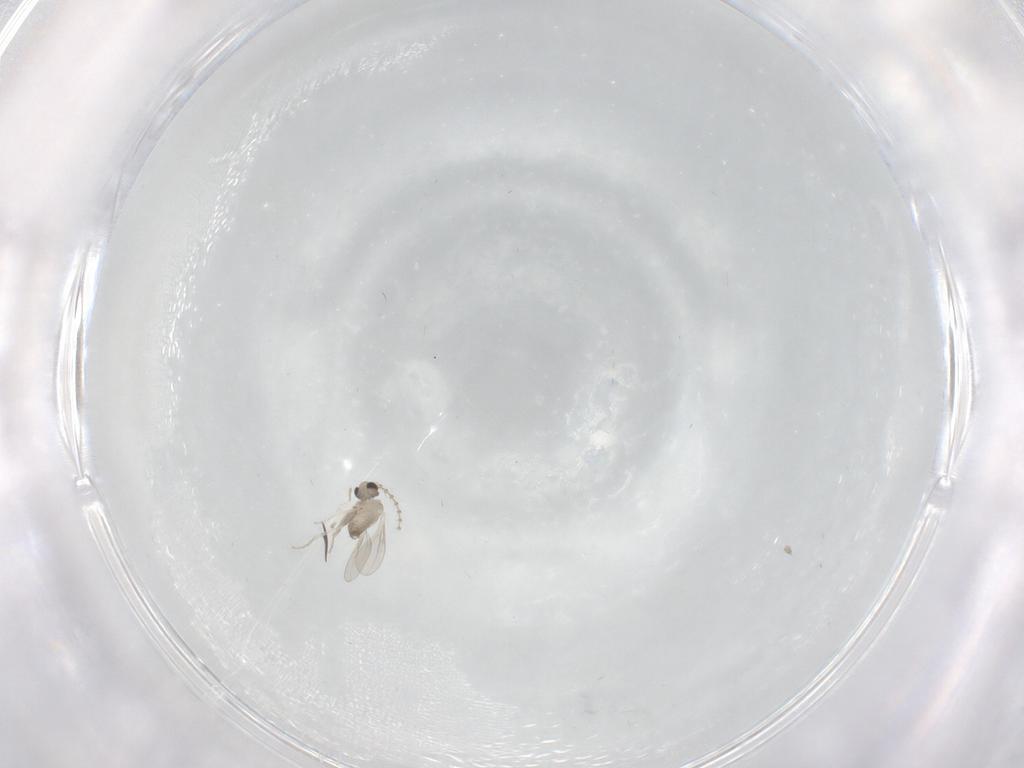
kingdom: Animalia
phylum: Arthropoda
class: Insecta
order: Diptera
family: Cecidomyiidae
